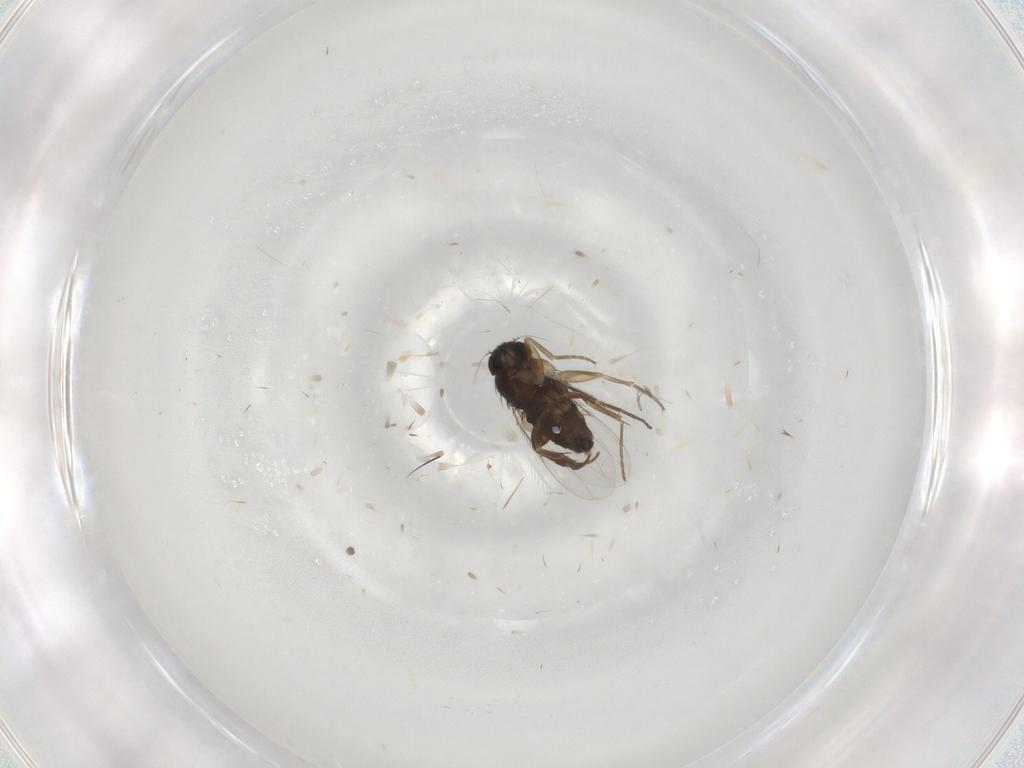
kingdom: Animalia
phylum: Arthropoda
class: Insecta
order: Diptera
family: Phoridae
